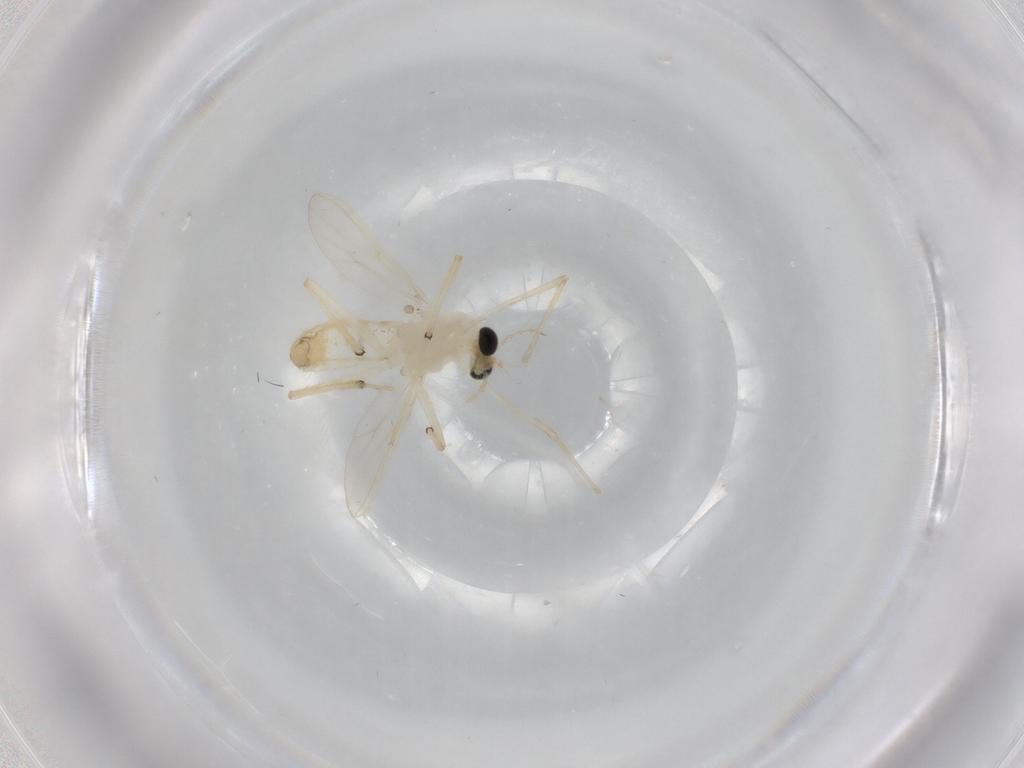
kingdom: Animalia
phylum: Arthropoda
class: Insecta
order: Diptera
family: Chironomidae
